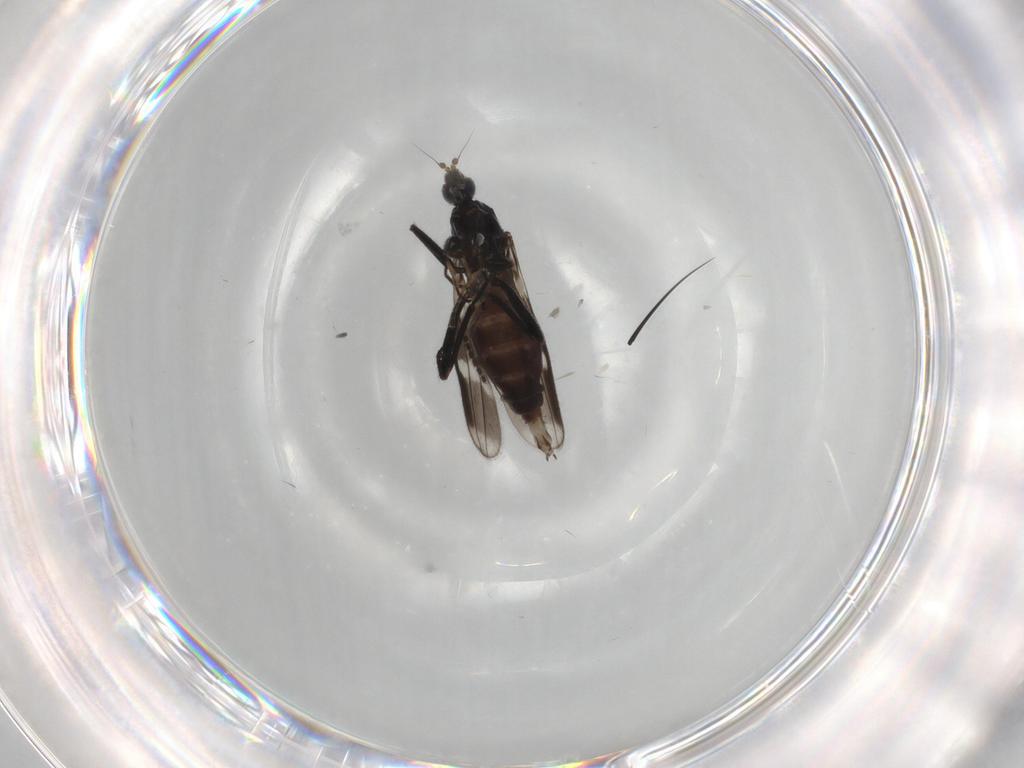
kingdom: Animalia
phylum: Arthropoda
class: Insecta
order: Diptera
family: Hybotidae
